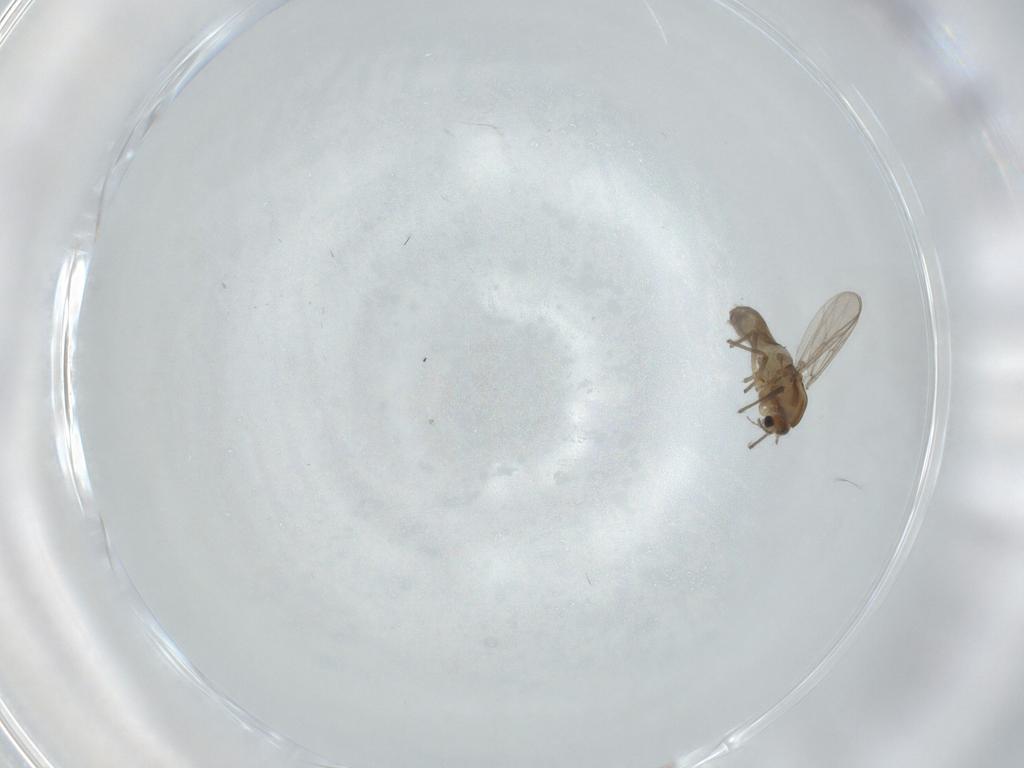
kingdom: Animalia
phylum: Arthropoda
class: Insecta
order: Diptera
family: Chironomidae
